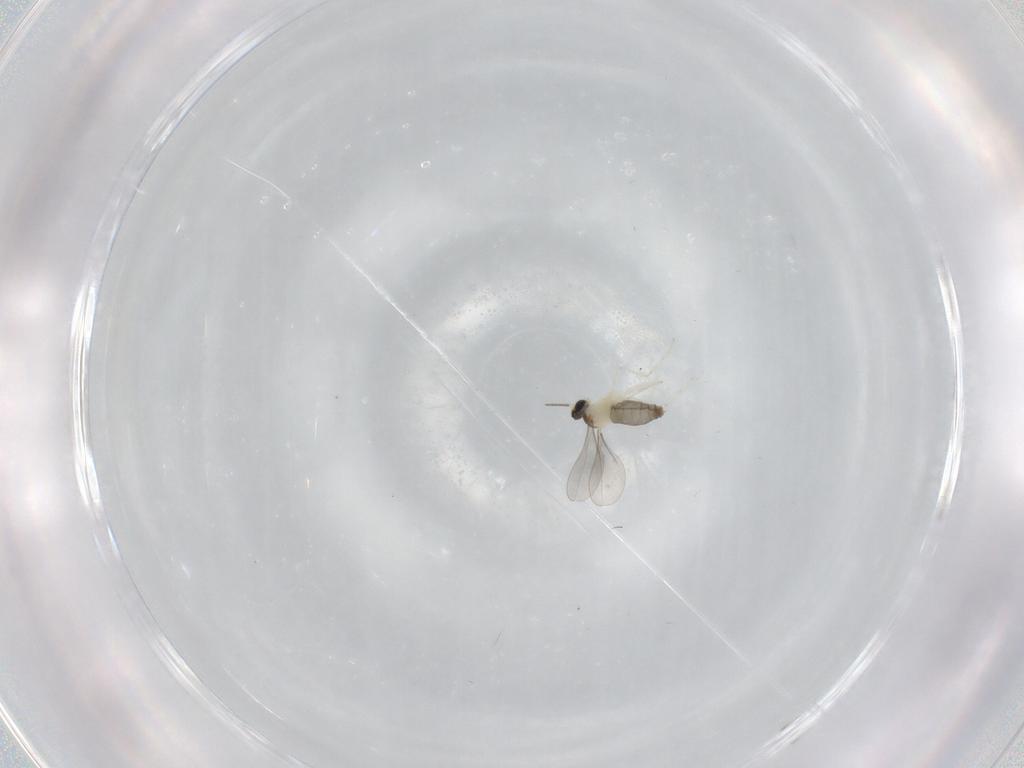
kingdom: Animalia
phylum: Arthropoda
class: Insecta
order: Diptera
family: Cecidomyiidae
